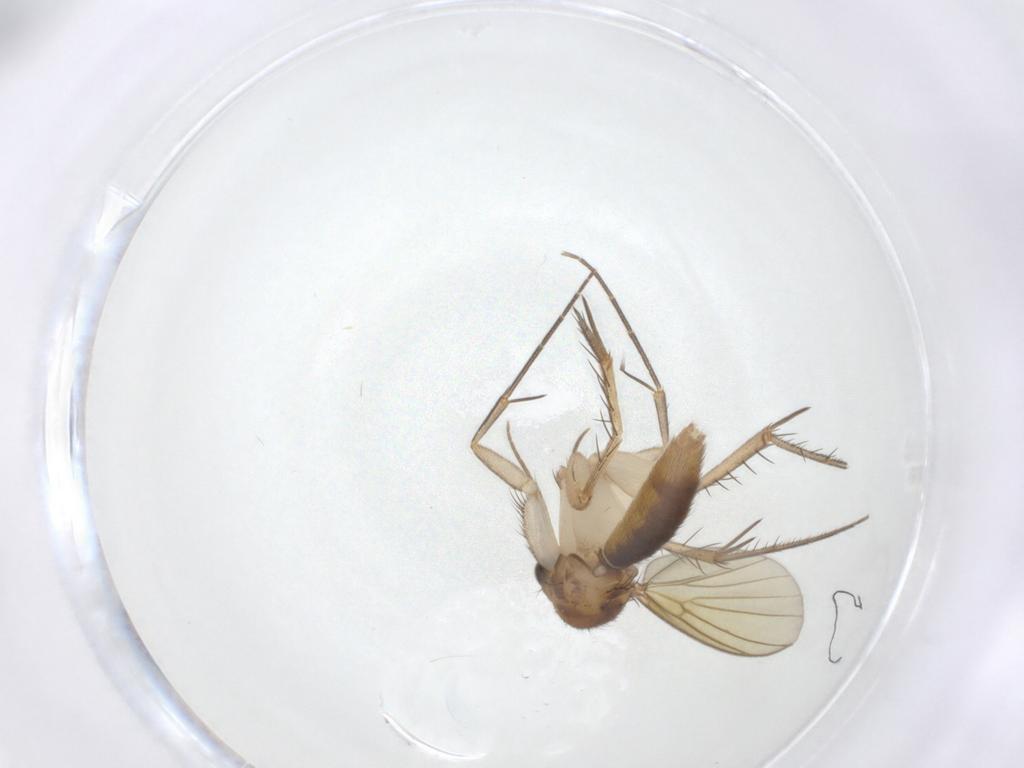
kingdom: Animalia
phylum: Arthropoda
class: Insecta
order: Diptera
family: Mycetophilidae
